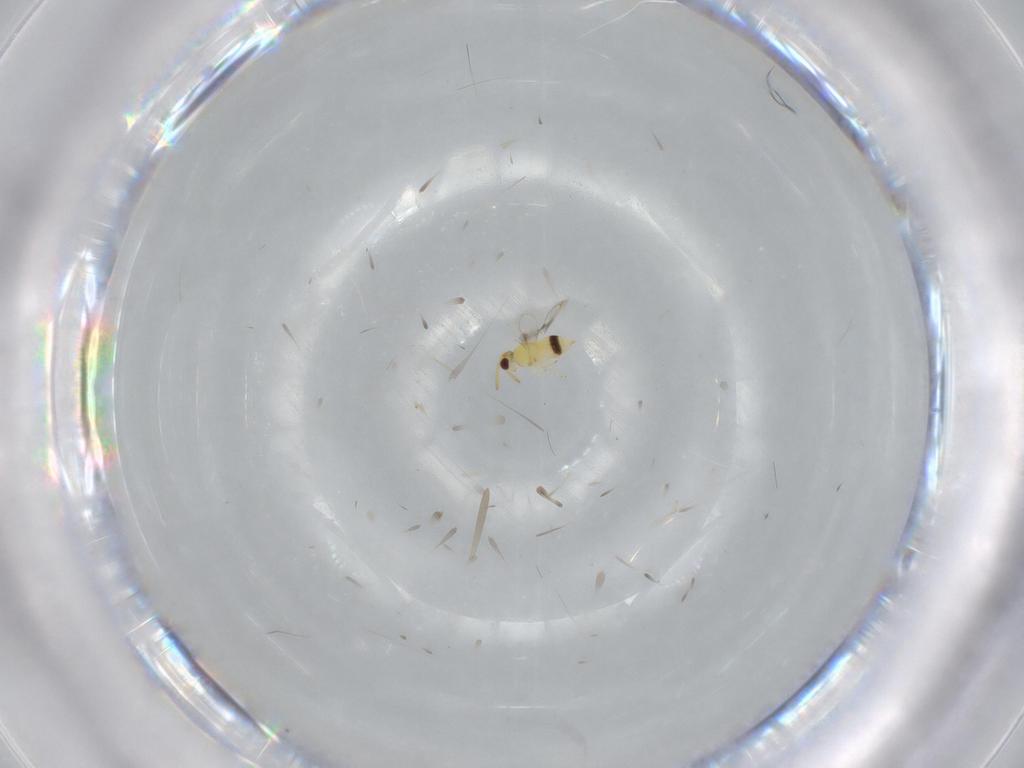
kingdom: Animalia
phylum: Arthropoda
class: Insecta
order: Hymenoptera
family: Aphelinidae
